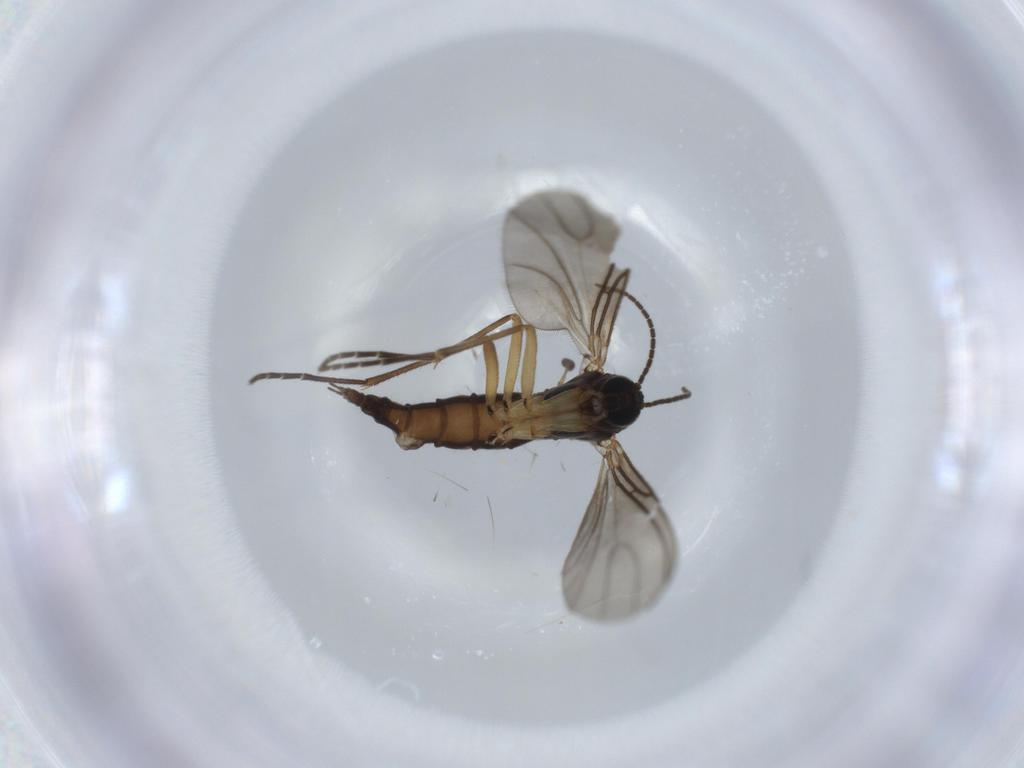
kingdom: Animalia
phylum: Arthropoda
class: Insecta
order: Diptera
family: Sciaridae
